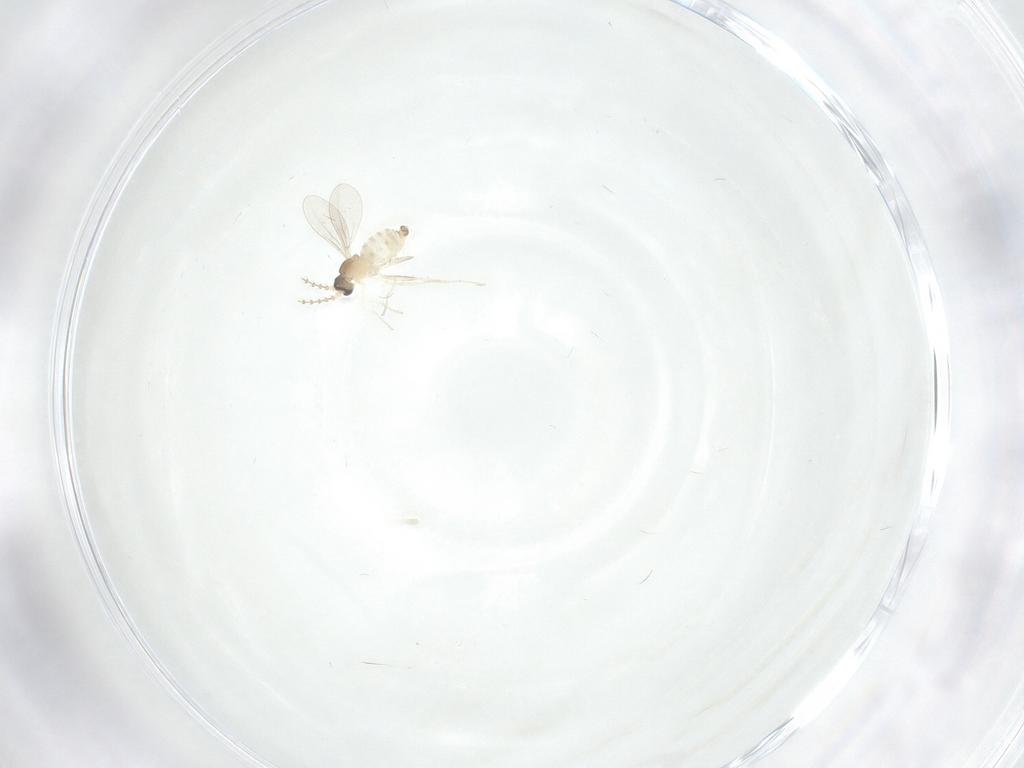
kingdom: Animalia
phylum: Arthropoda
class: Insecta
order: Diptera
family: Cecidomyiidae
